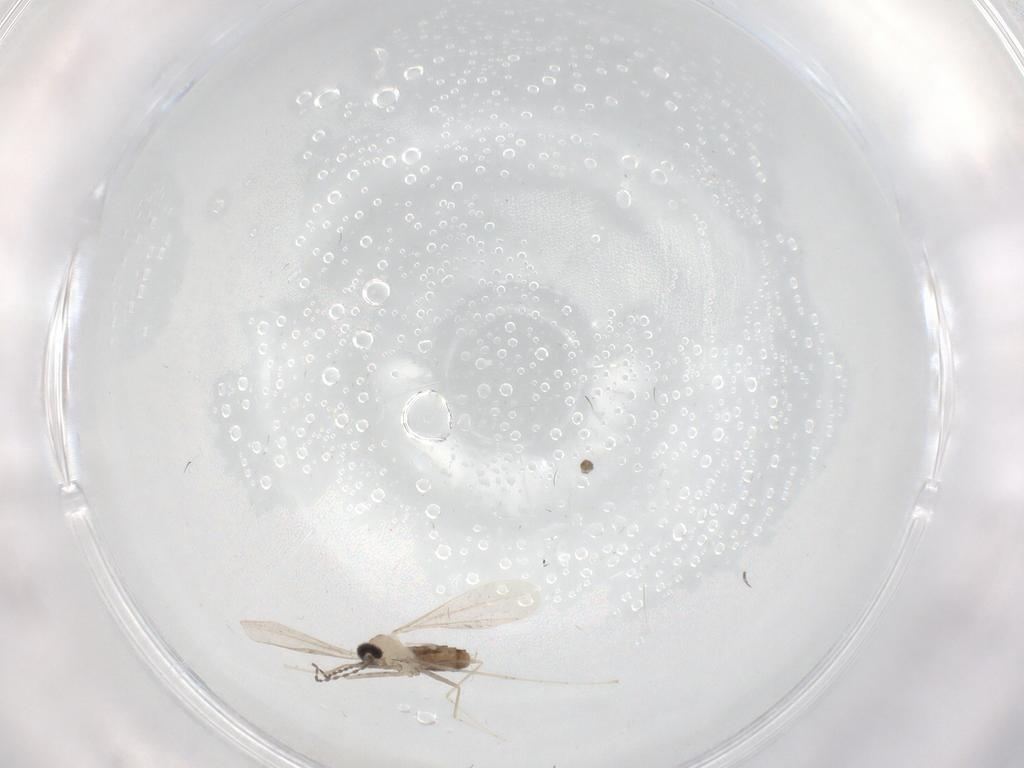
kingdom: Animalia
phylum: Arthropoda
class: Insecta
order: Diptera
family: Cecidomyiidae
